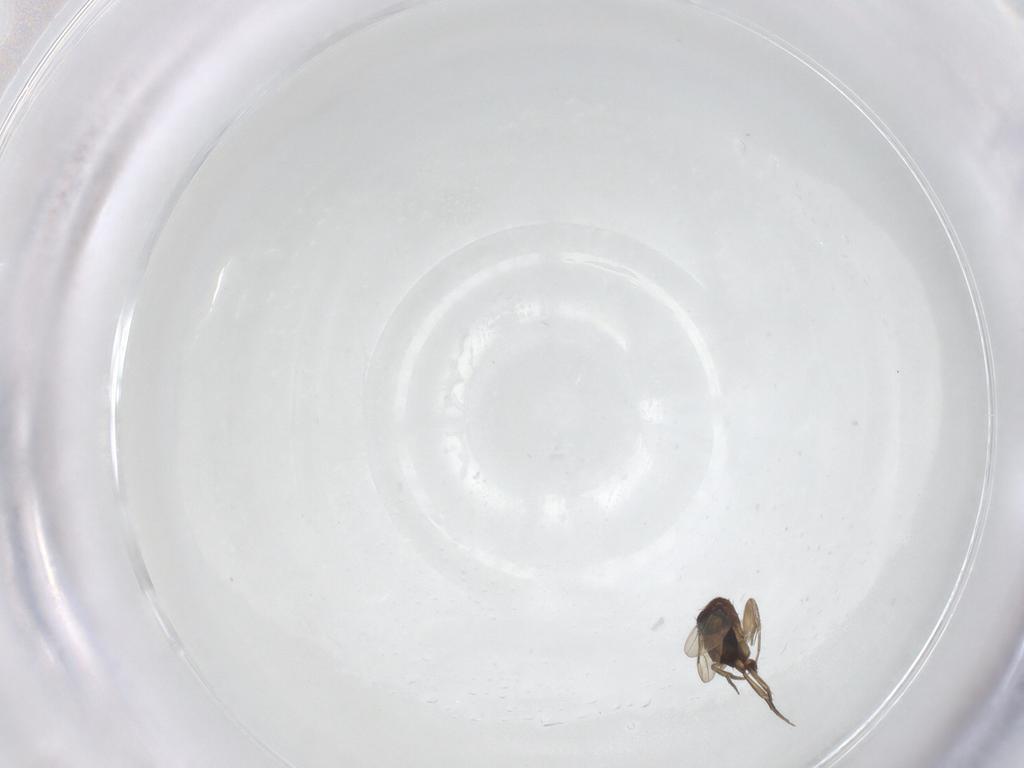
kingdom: Animalia
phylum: Arthropoda
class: Insecta
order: Diptera
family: Phoridae
